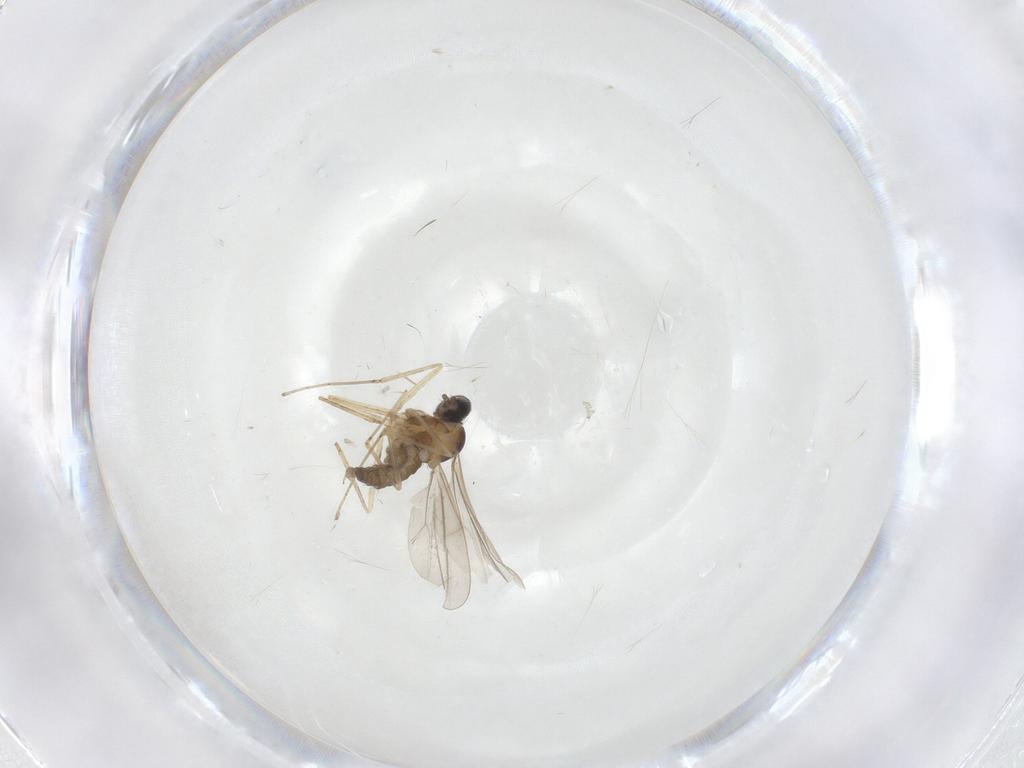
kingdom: Animalia
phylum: Arthropoda
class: Insecta
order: Diptera
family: Cecidomyiidae
